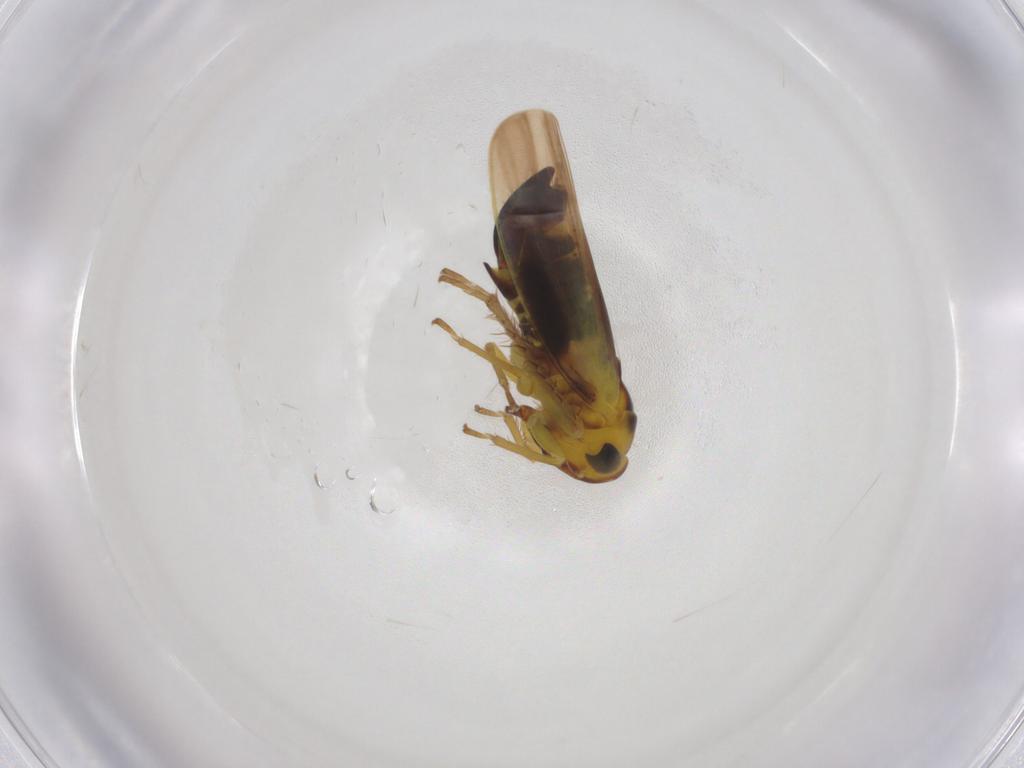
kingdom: Animalia
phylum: Arthropoda
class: Insecta
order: Hemiptera
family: Cicadellidae
